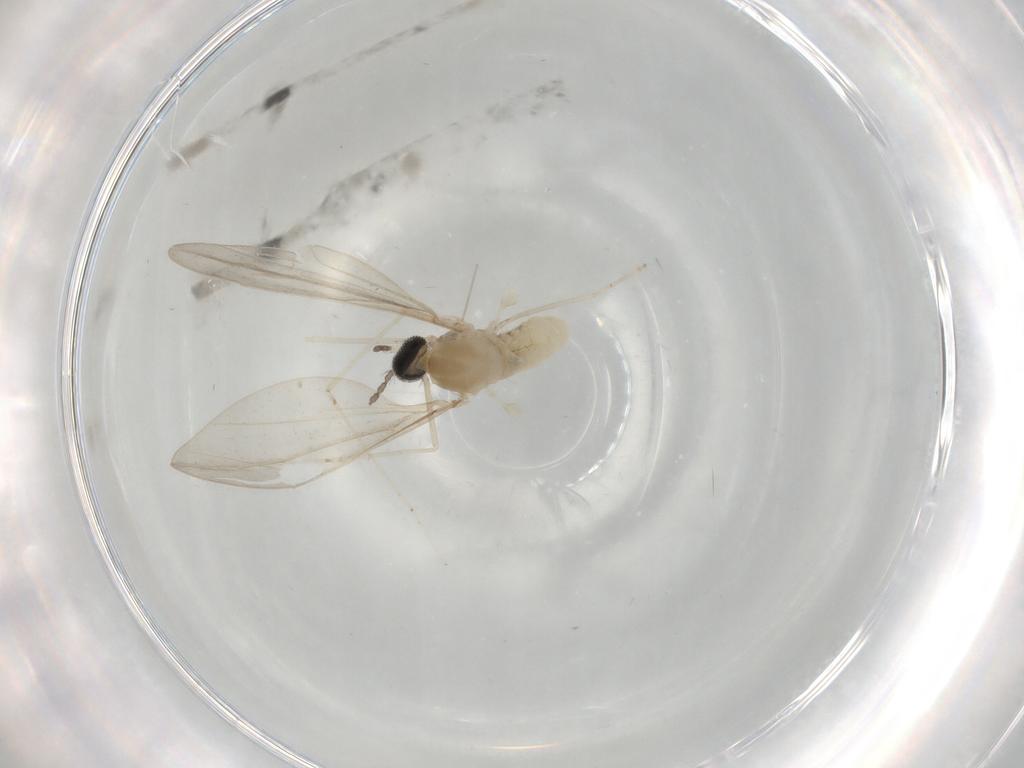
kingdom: Animalia
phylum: Arthropoda
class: Insecta
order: Diptera
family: Cecidomyiidae
